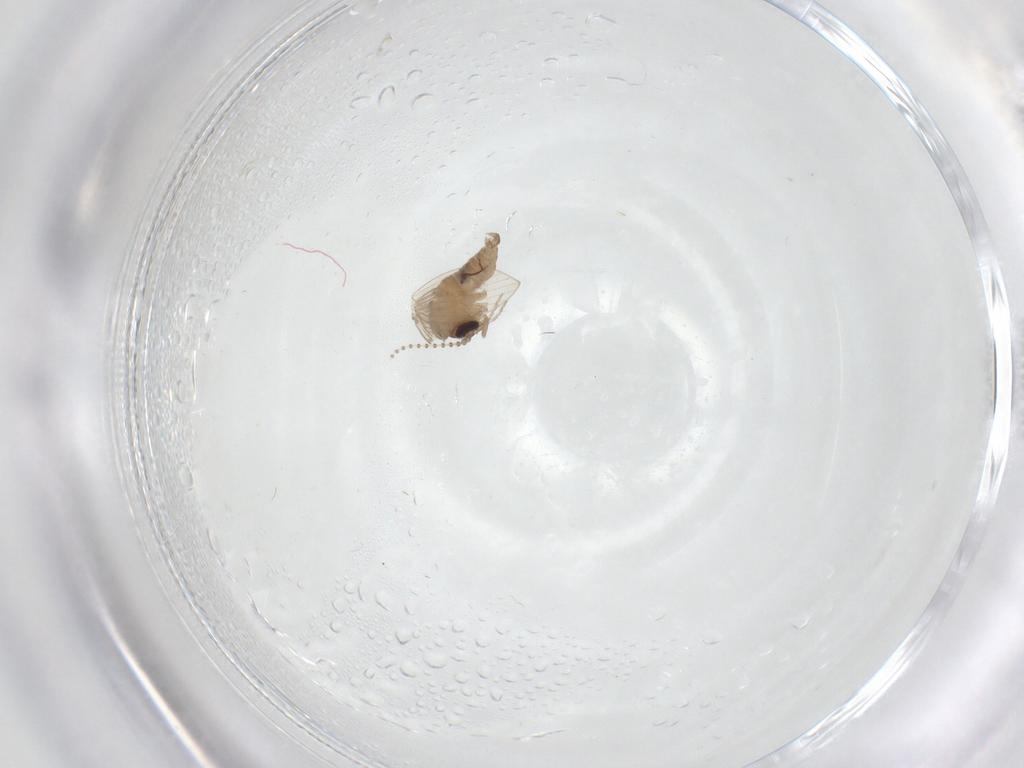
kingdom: Animalia
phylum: Arthropoda
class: Insecta
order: Diptera
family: Psychodidae
